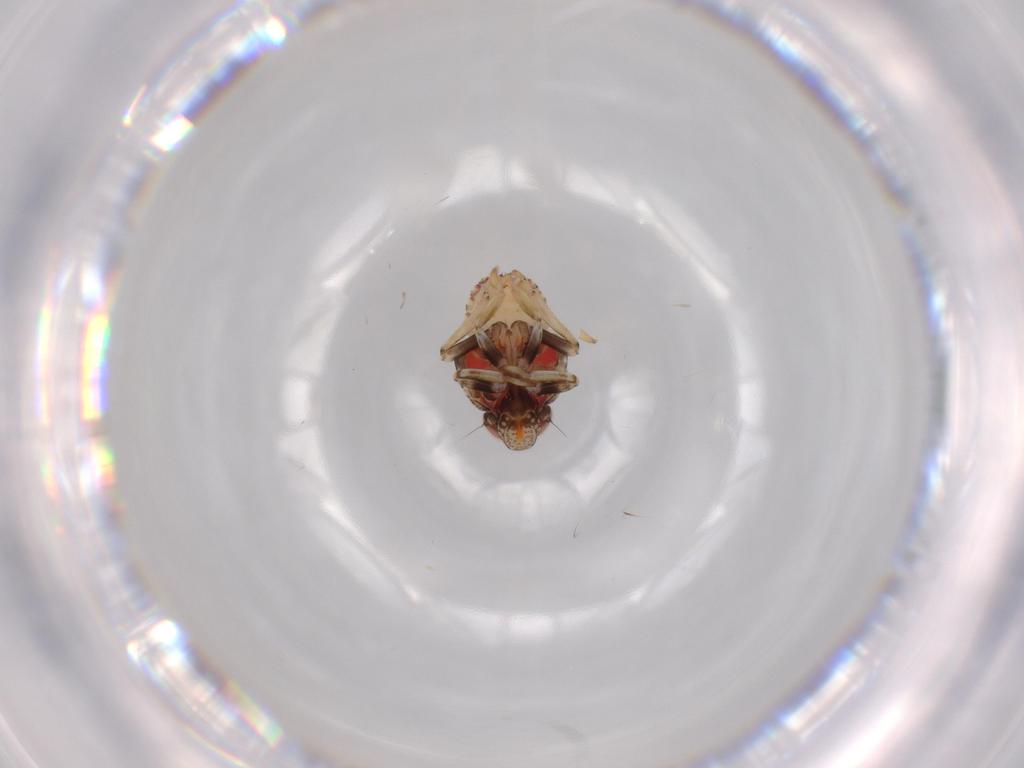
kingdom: Animalia
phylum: Arthropoda
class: Insecta
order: Hemiptera
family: Issidae
